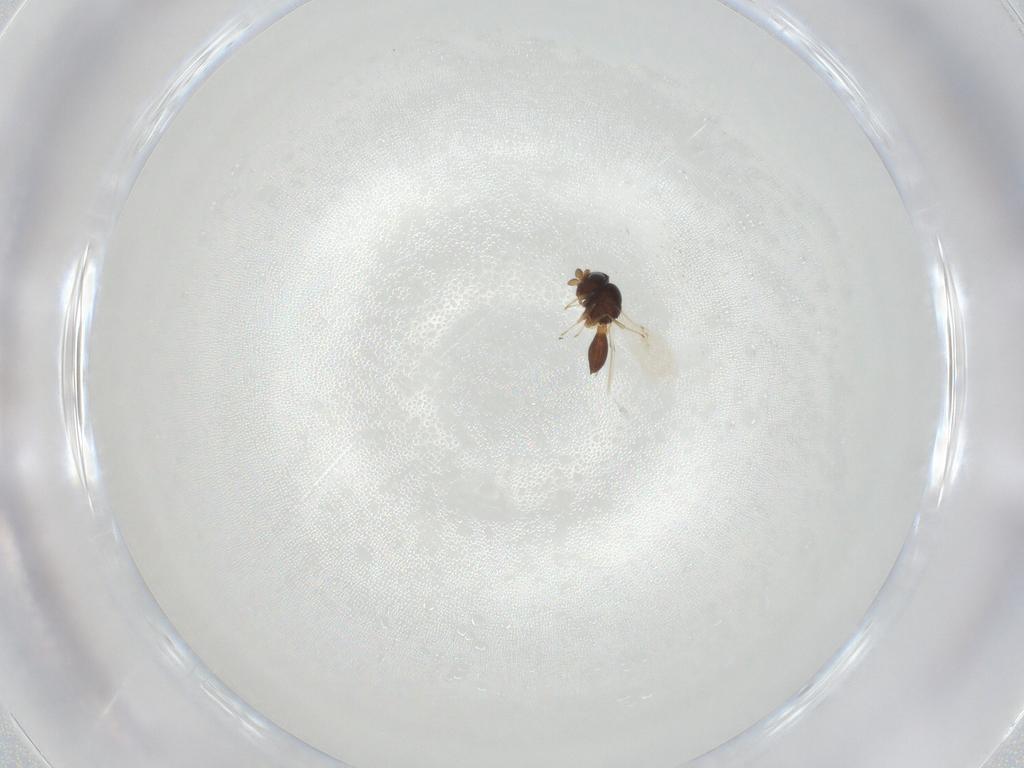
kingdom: Animalia
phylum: Arthropoda
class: Insecta
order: Hymenoptera
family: Scelionidae
